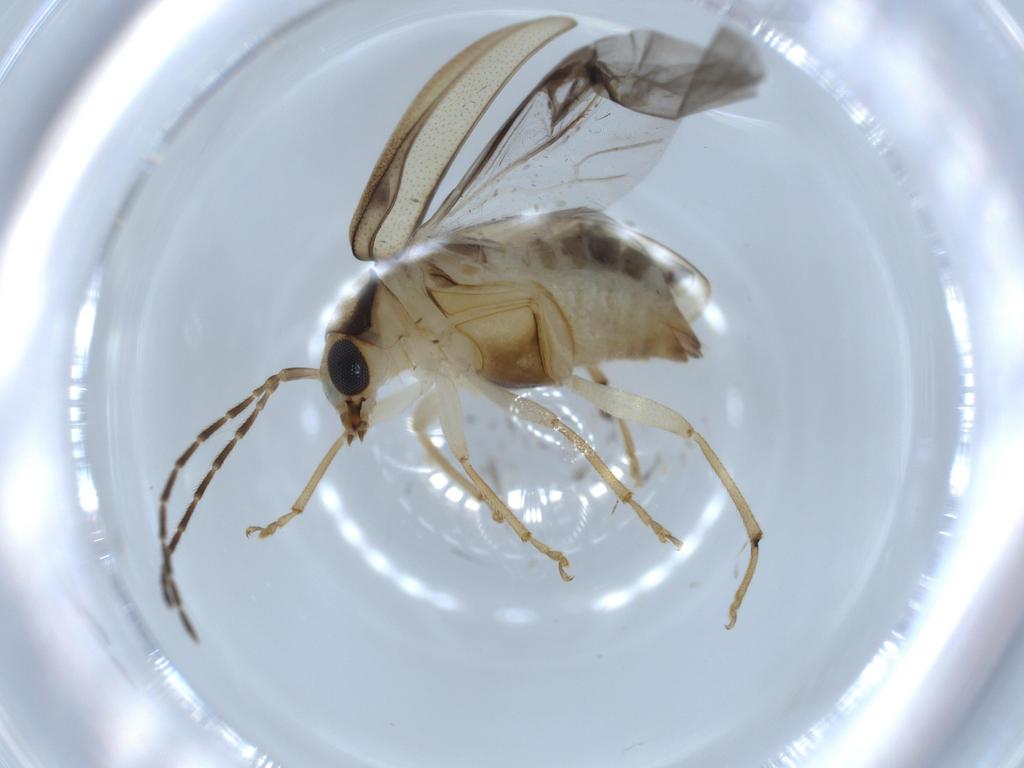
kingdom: Animalia
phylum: Arthropoda
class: Insecta
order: Coleoptera
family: Chrysomelidae
